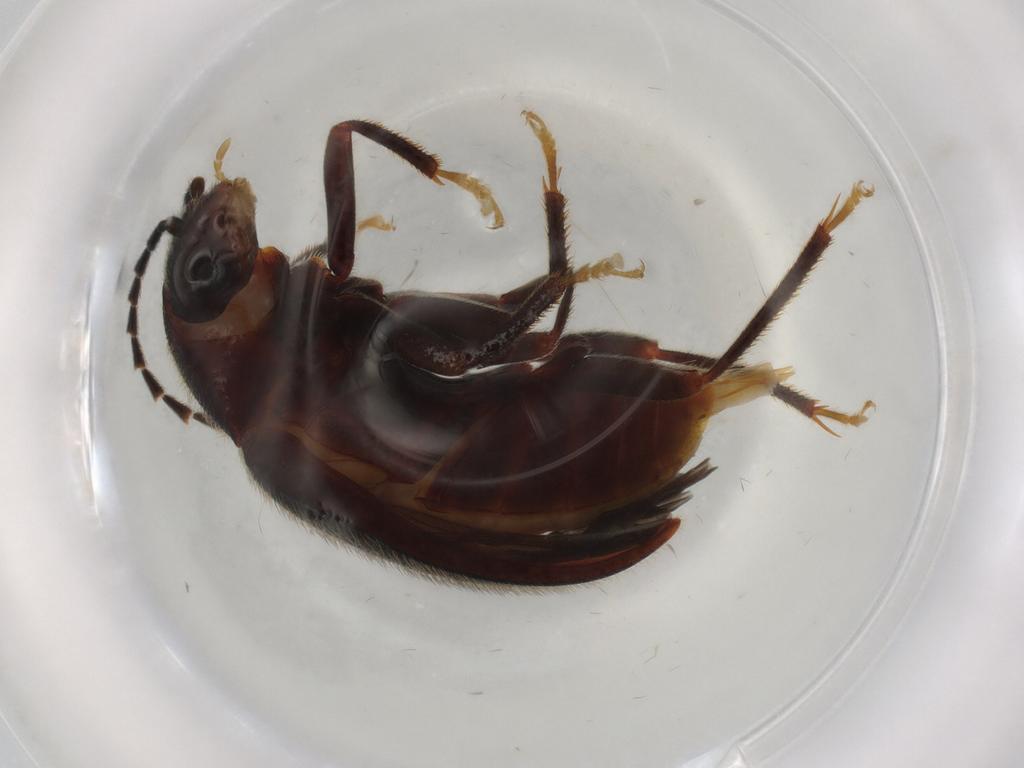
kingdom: Animalia
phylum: Arthropoda
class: Insecta
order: Coleoptera
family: Ptilodactylidae
